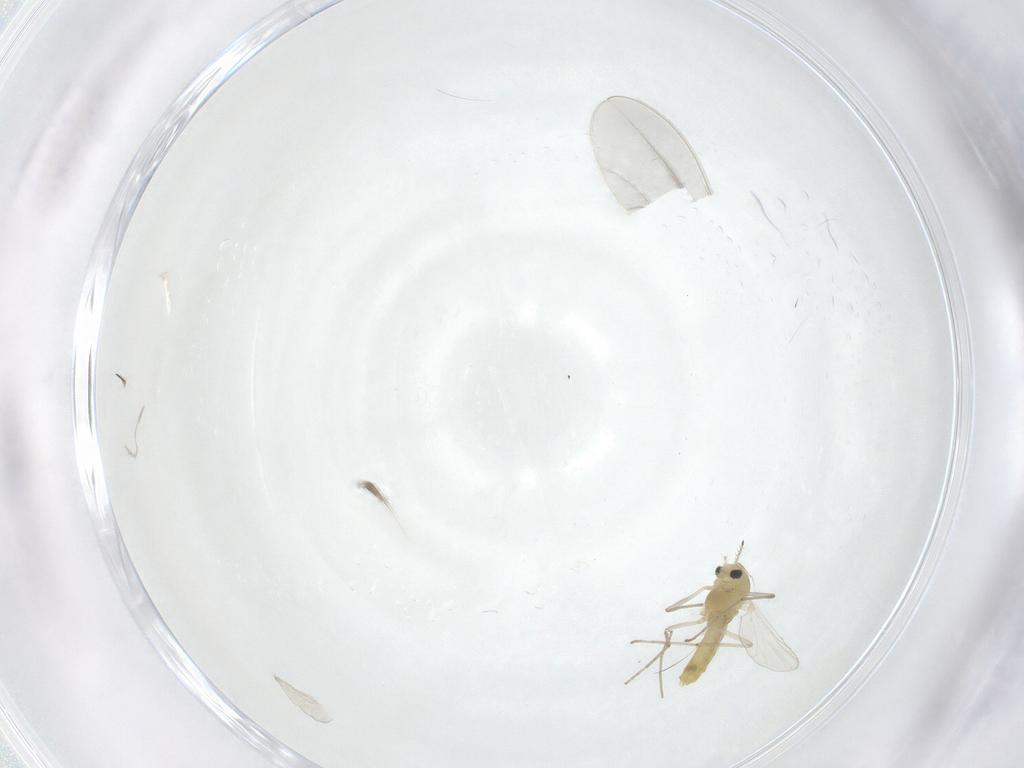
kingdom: Animalia
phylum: Arthropoda
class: Insecta
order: Diptera
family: Chironomidae
